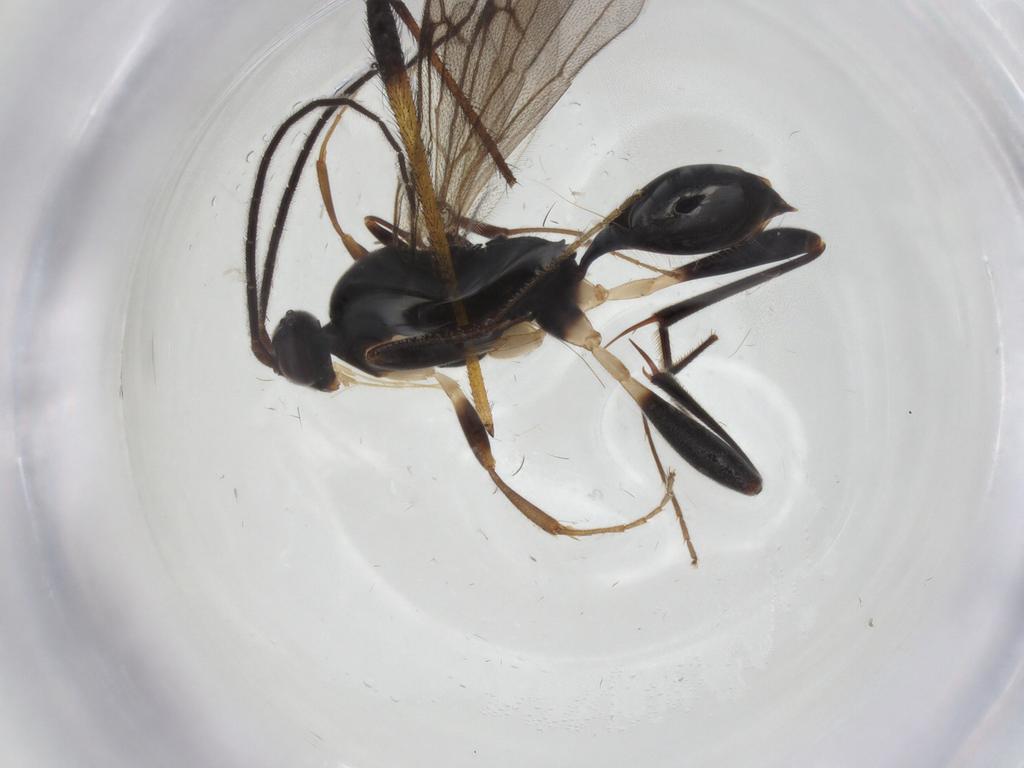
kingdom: Animalia
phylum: Arthropoda
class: Insecta
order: Hymenoptera
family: Proctotrupidae
